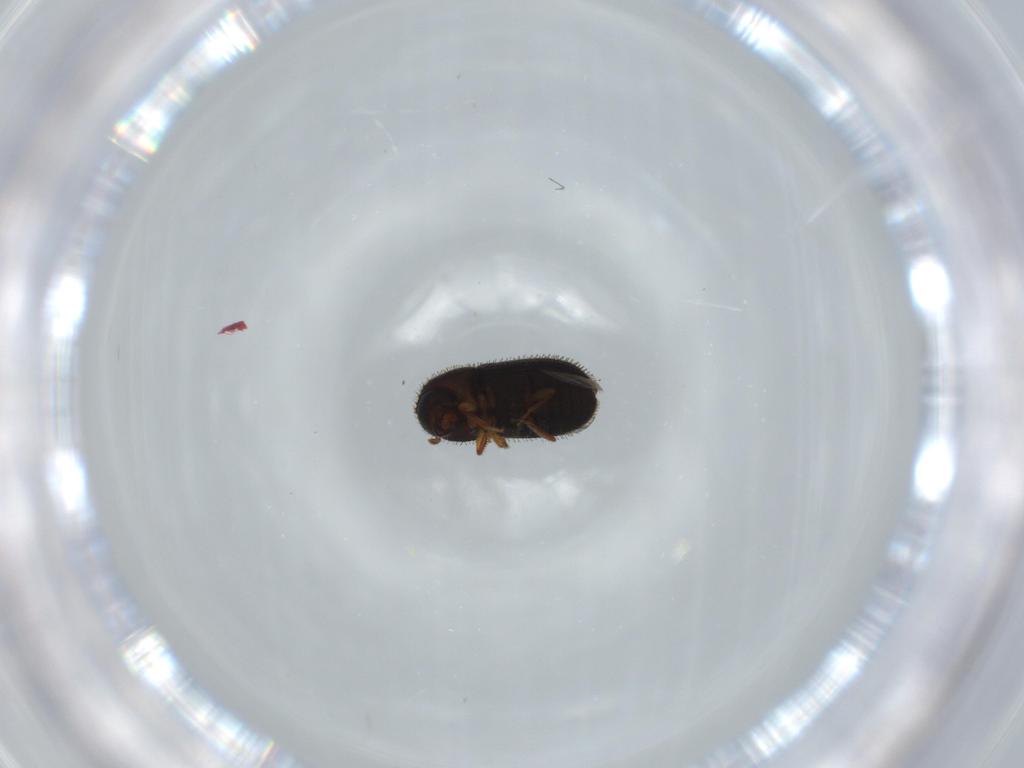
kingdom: Animalia
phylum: Arthropoda
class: Insecta
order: Coleoptera
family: Curculionidae
